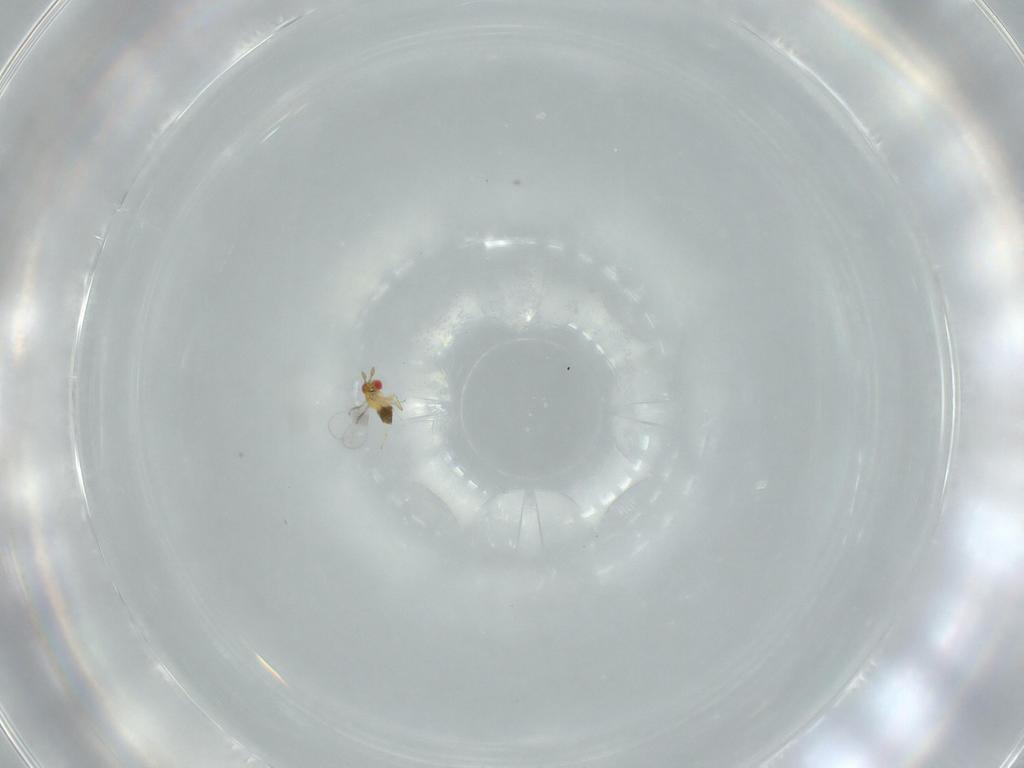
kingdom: Animalia
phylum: Arthropoda
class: Insecta
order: Hymenoptera
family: Trichogrammatidae
